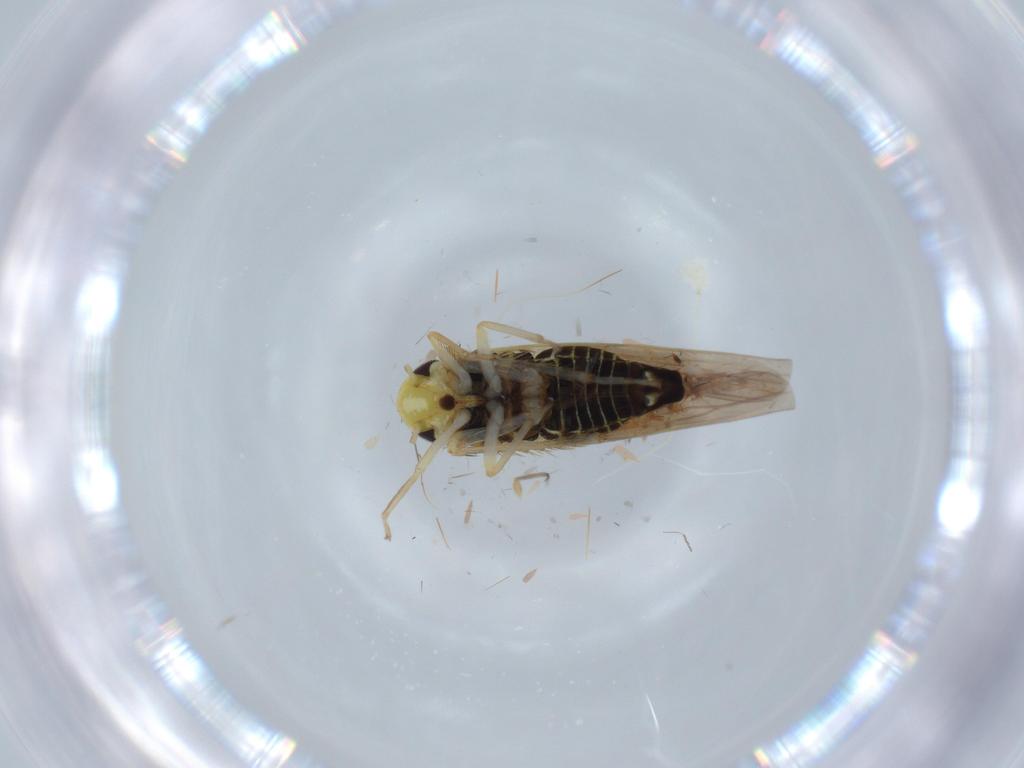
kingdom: Animalia
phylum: Arthropoda
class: Insecta
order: Hemiptera
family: Cicadellidae
